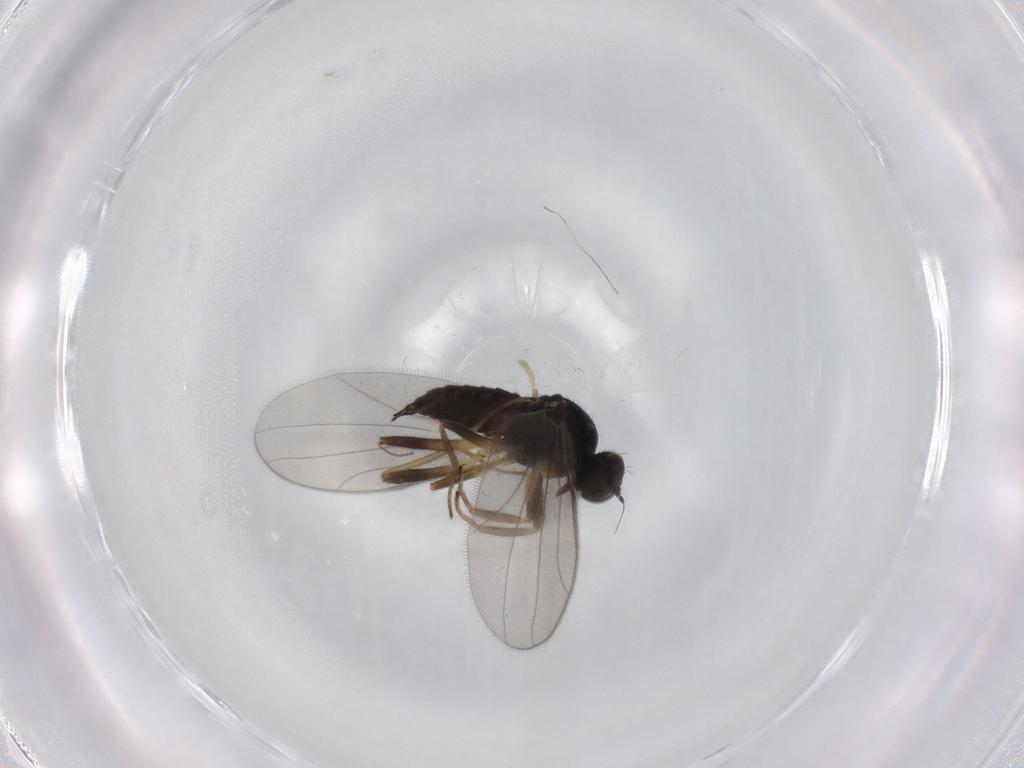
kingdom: Animalia
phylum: Arthropoda
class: Insecta
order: Diptera
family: Hybotidae
